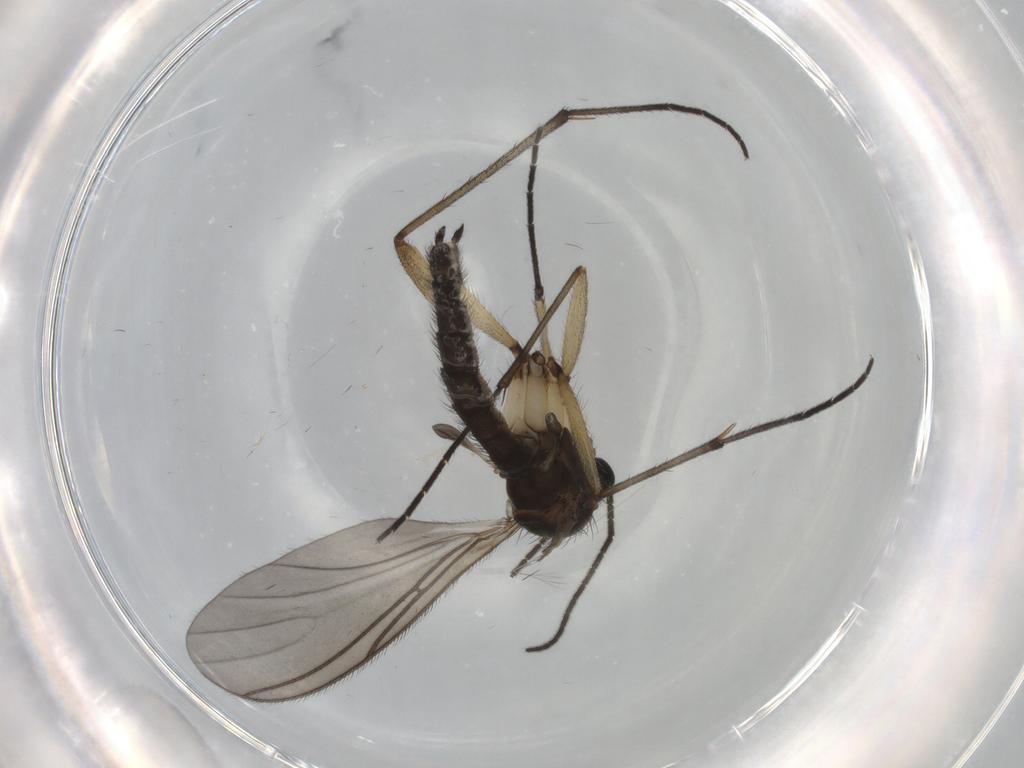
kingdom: Animalia
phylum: Arthropoda
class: Insecta
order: Diptera
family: Sciaridae
